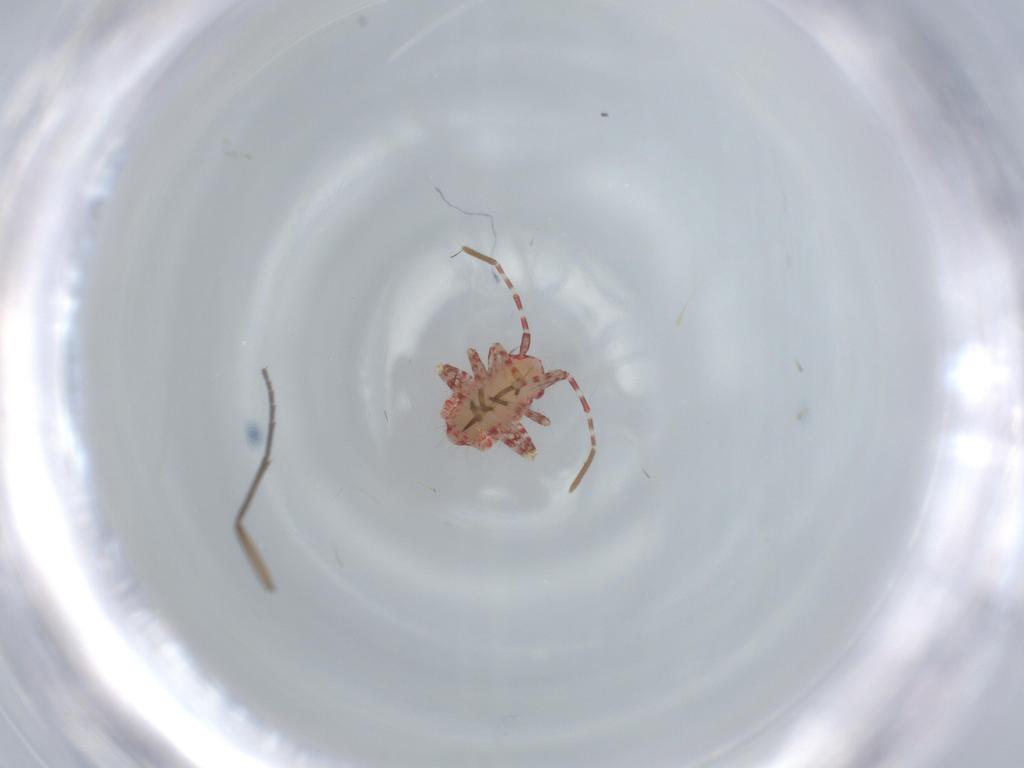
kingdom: Animalia
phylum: Arthropoda
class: Insecta
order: Hemiptera
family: Miridae
